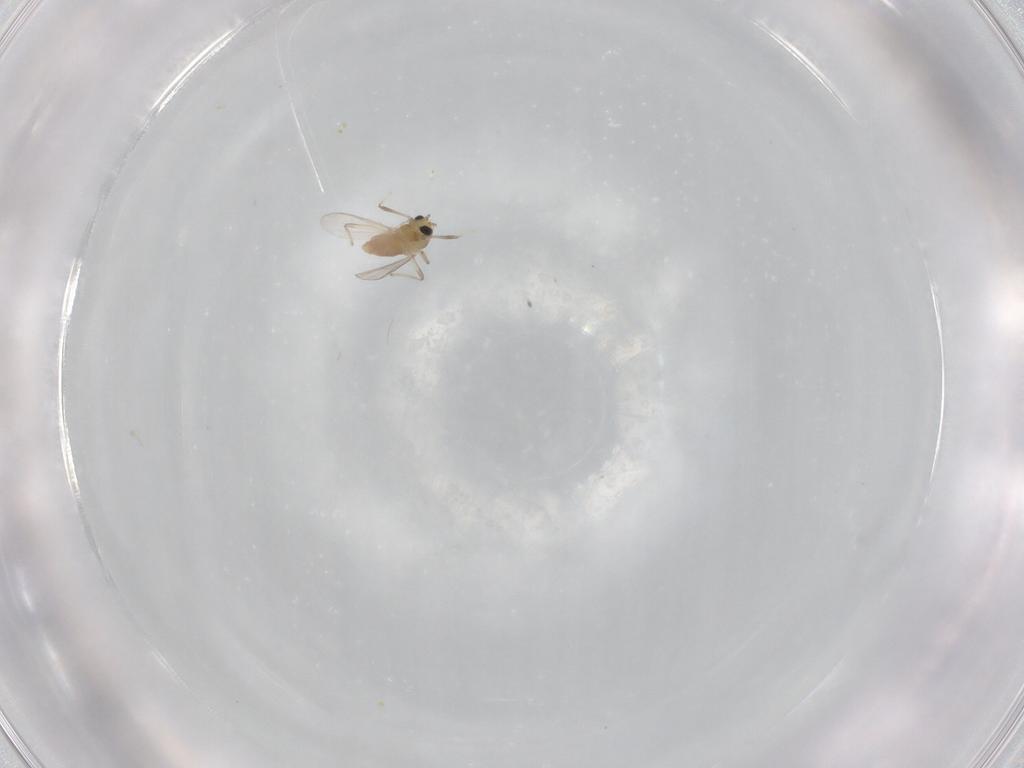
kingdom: Animalia
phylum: Arthropoda
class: Insecta
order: Diptera
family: Chironomidae
